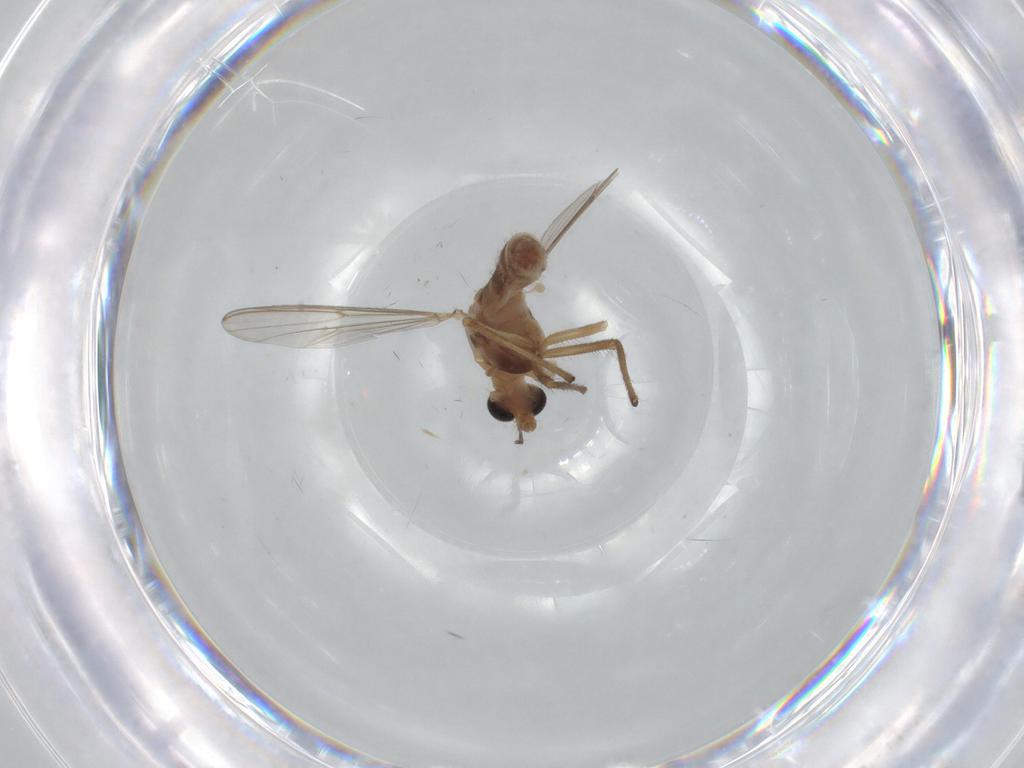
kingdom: Animalia
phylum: Arthropoda
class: Insecta
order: Diptera
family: Chironomidae
